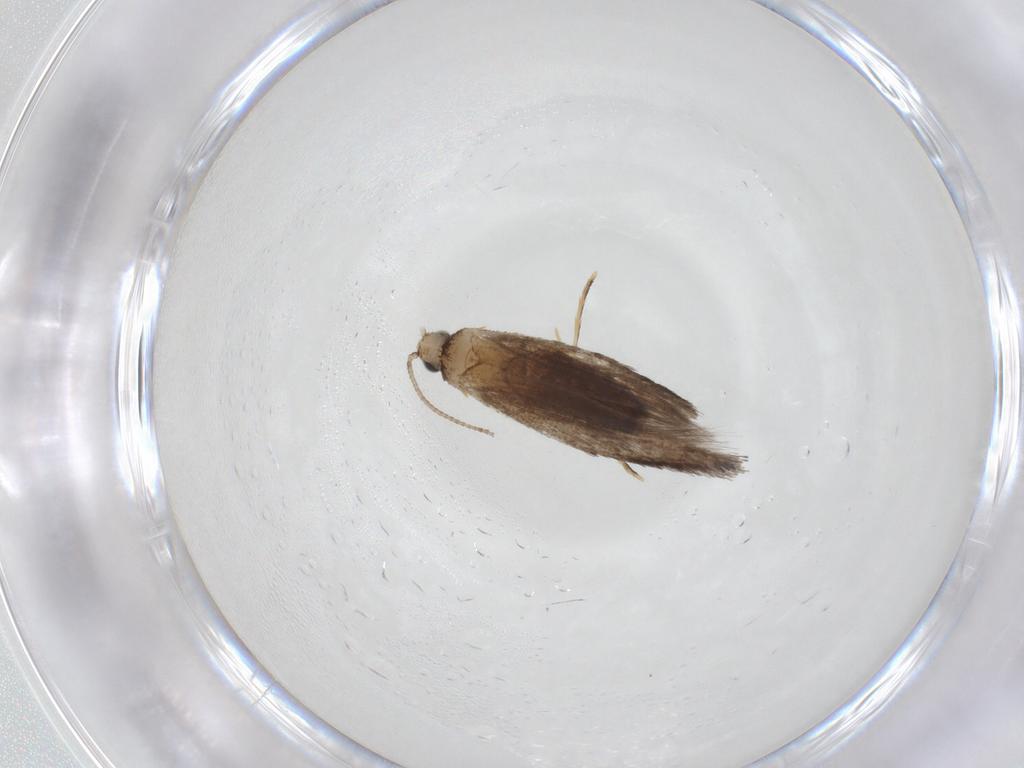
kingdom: Animalia
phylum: Arthropoda
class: Insecta
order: Lepidoptera
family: Tineidae
